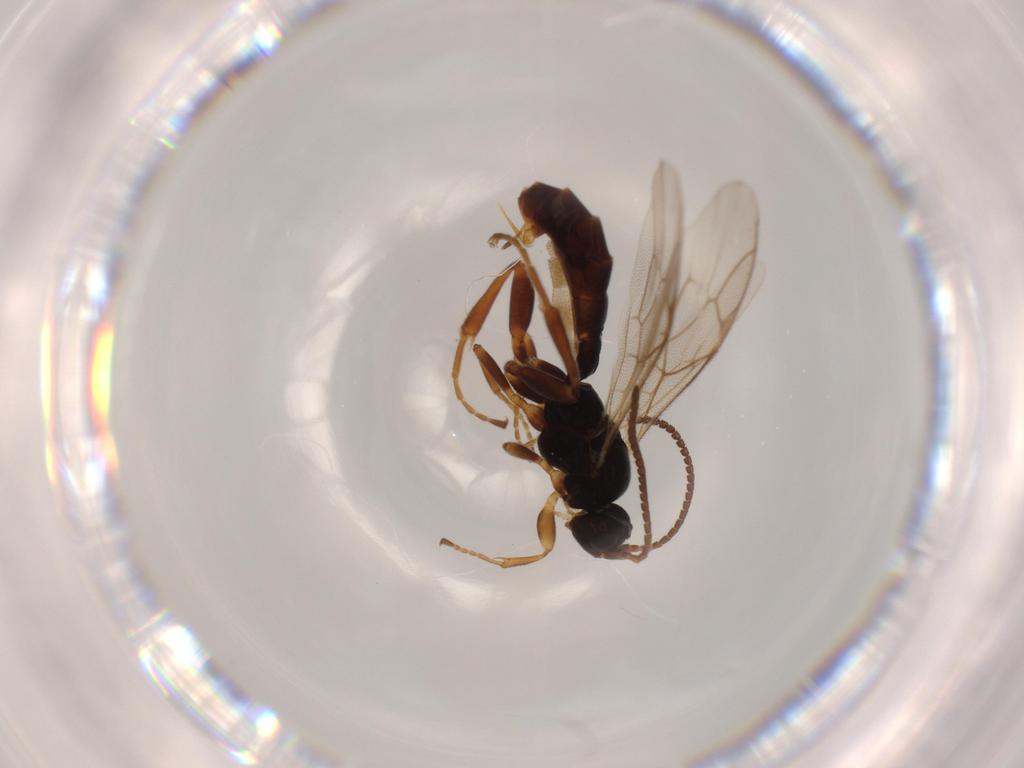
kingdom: Animalia
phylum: Arthropoda
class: Insecta
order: Hymenoptera
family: Ichneumonidae
